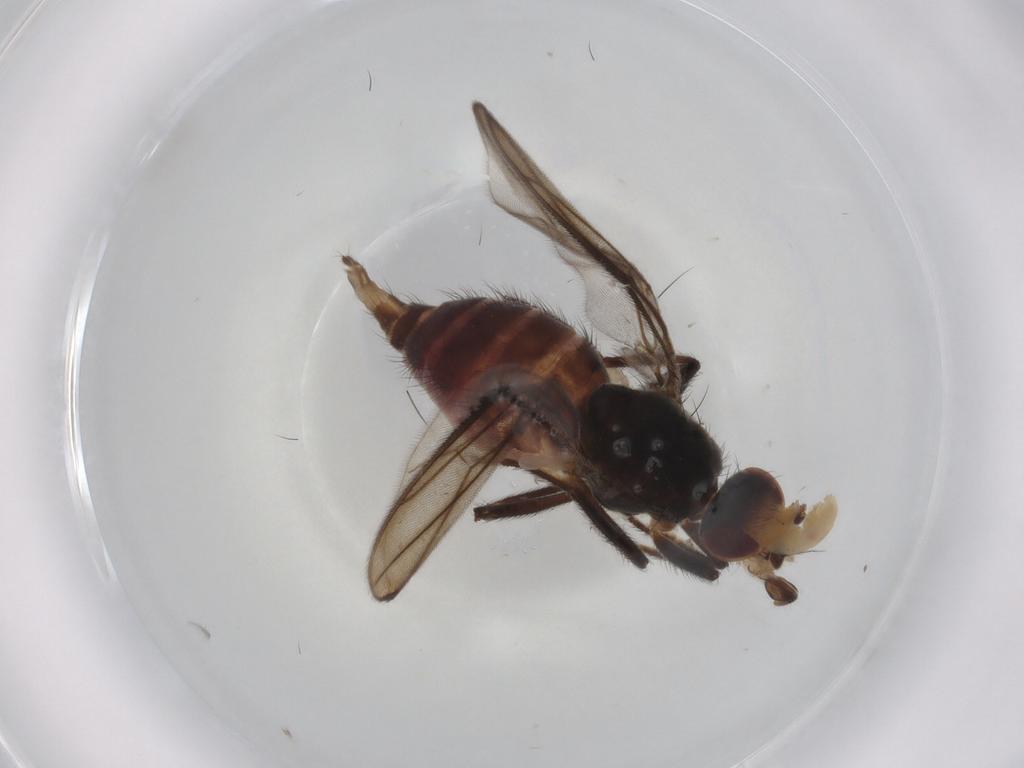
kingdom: Animalia
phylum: Arthropoda
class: Insecta
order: Diptera
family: Chloropidae
